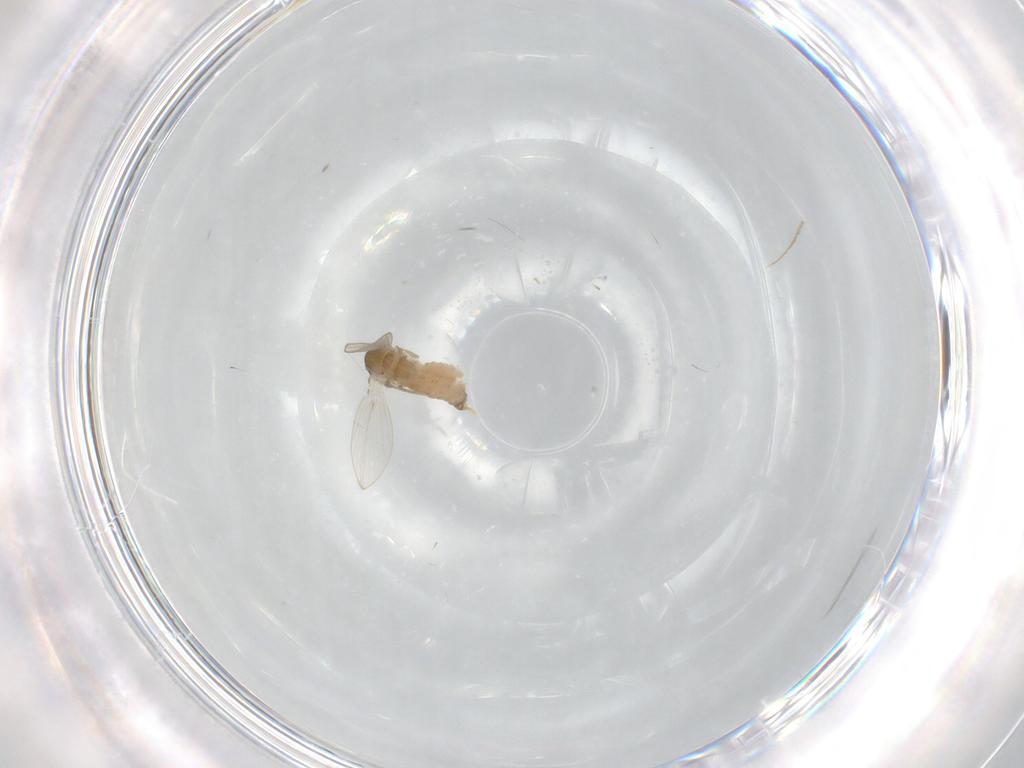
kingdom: Animalia
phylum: Arthropoda
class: Insecta
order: Diptera
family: Psychodidae
